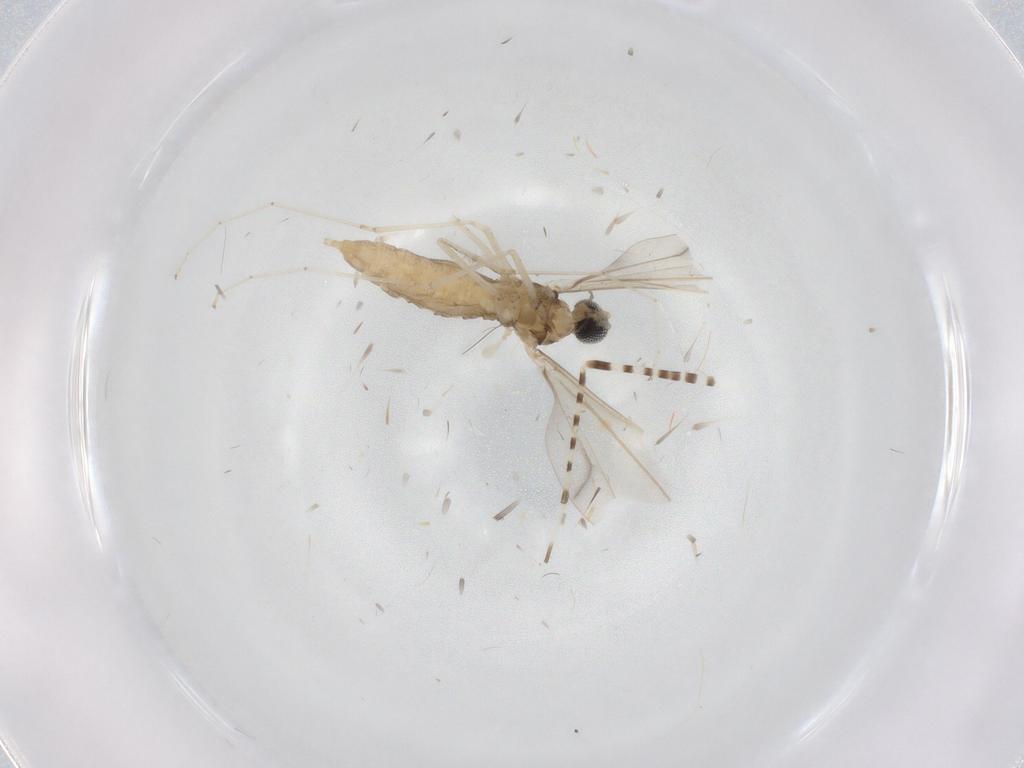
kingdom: Animalia
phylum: Arthropoda
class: Insecta
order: Diptera
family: Cecidomyiidae
